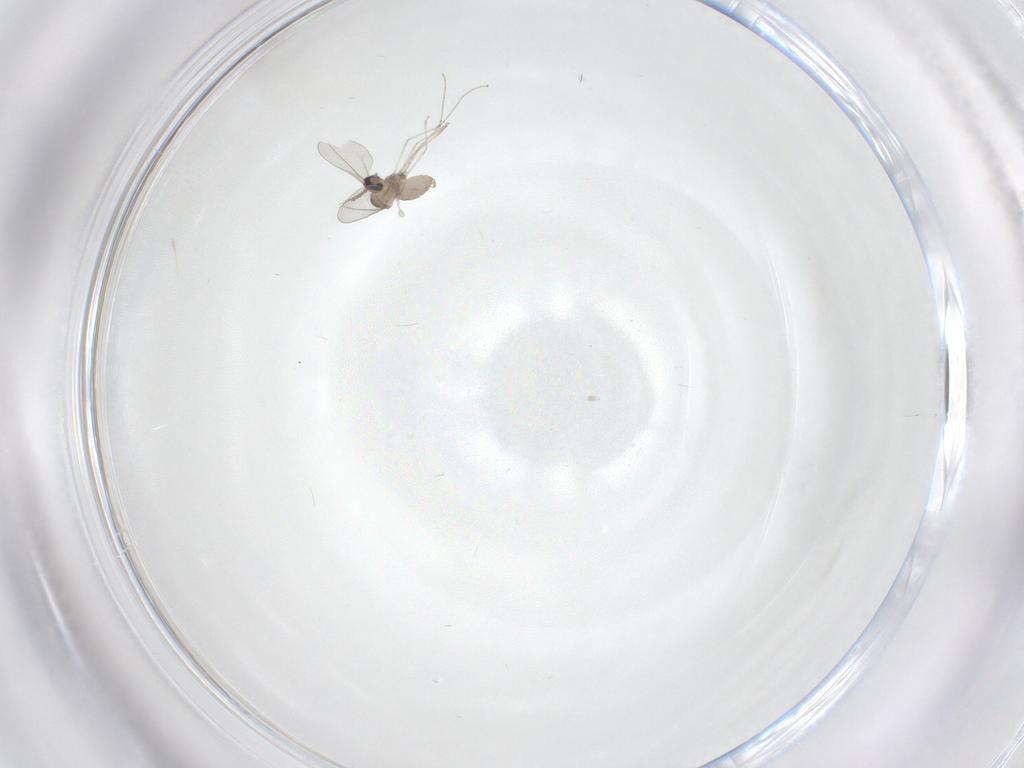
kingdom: Animalia
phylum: Arthropoda
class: Insecta
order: Diptera
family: Cecidomyiidae
